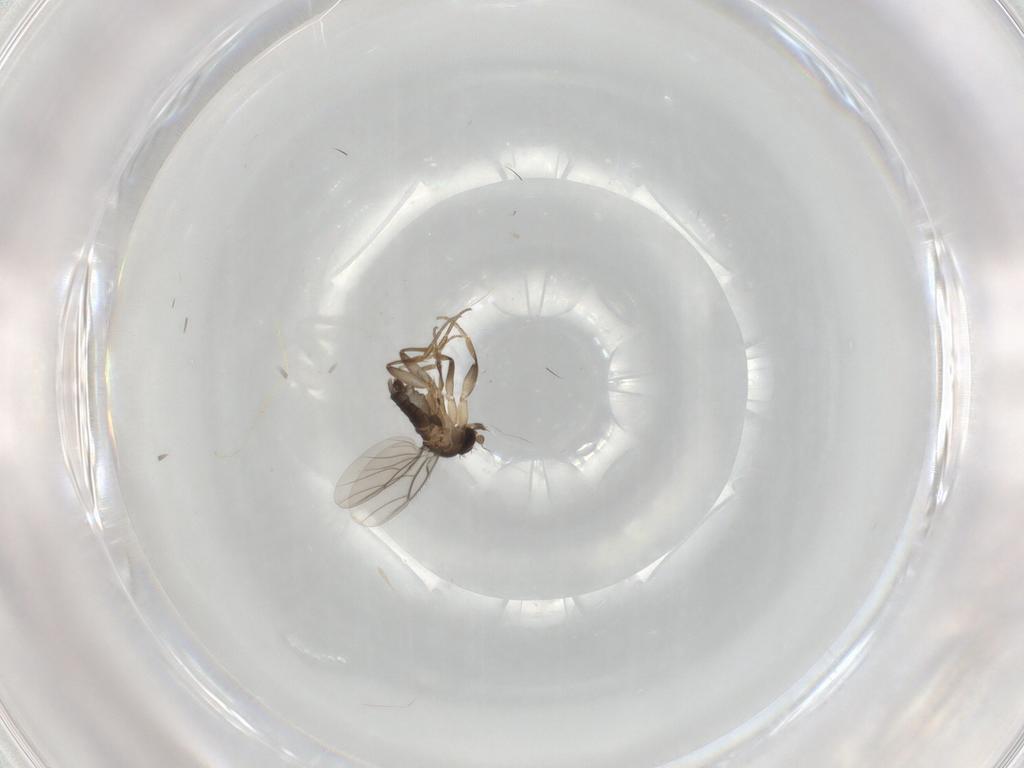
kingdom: Animalia
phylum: Arthropoda
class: Insecta
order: Diptera
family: Phoridae
